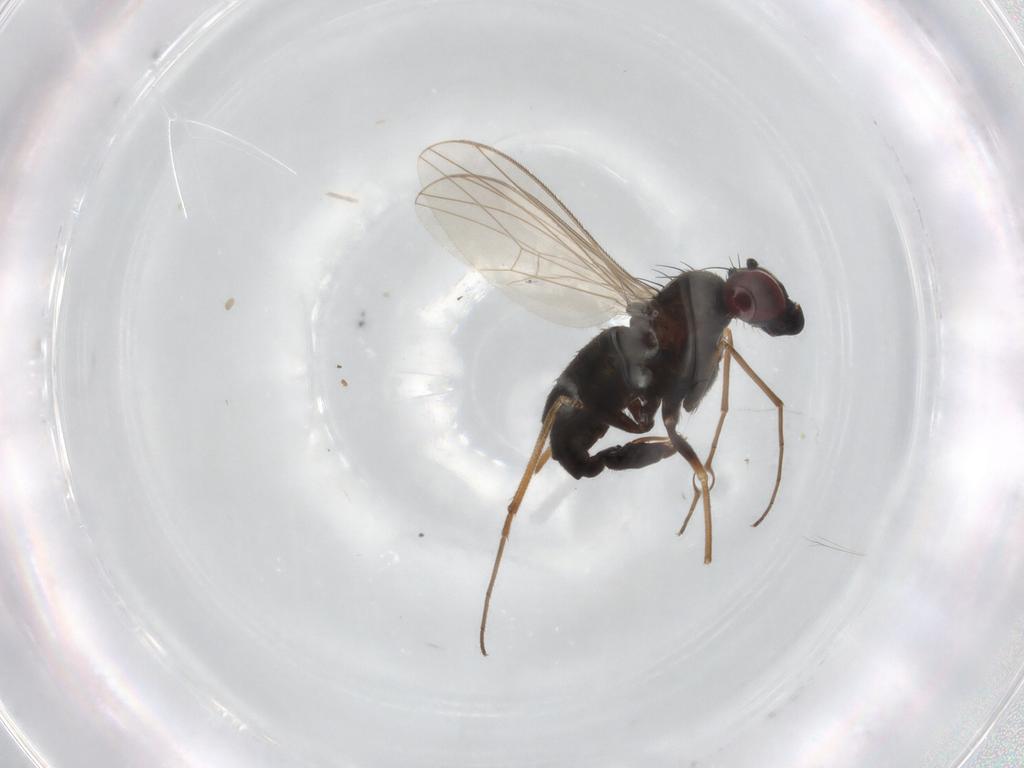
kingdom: Animalia
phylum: Arthropoda
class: Insecta
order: Diptera
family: Dolichopodidae
